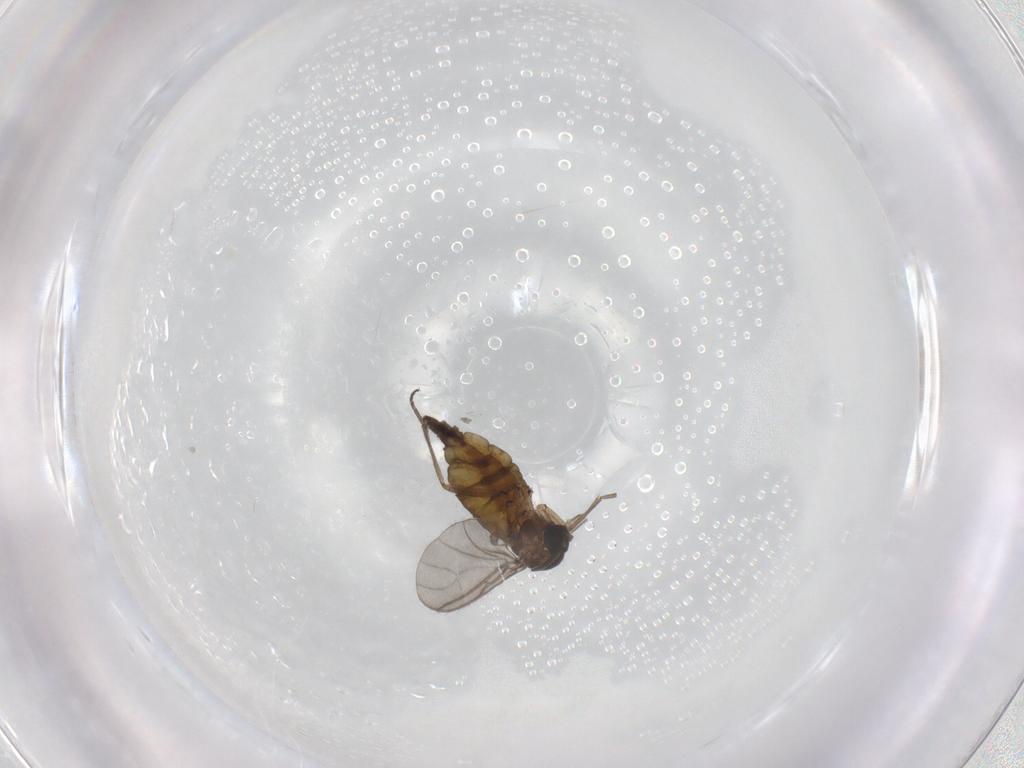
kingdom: Animalia
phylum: Arthropoda
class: Insecta
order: Diptera
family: Sciaridae
